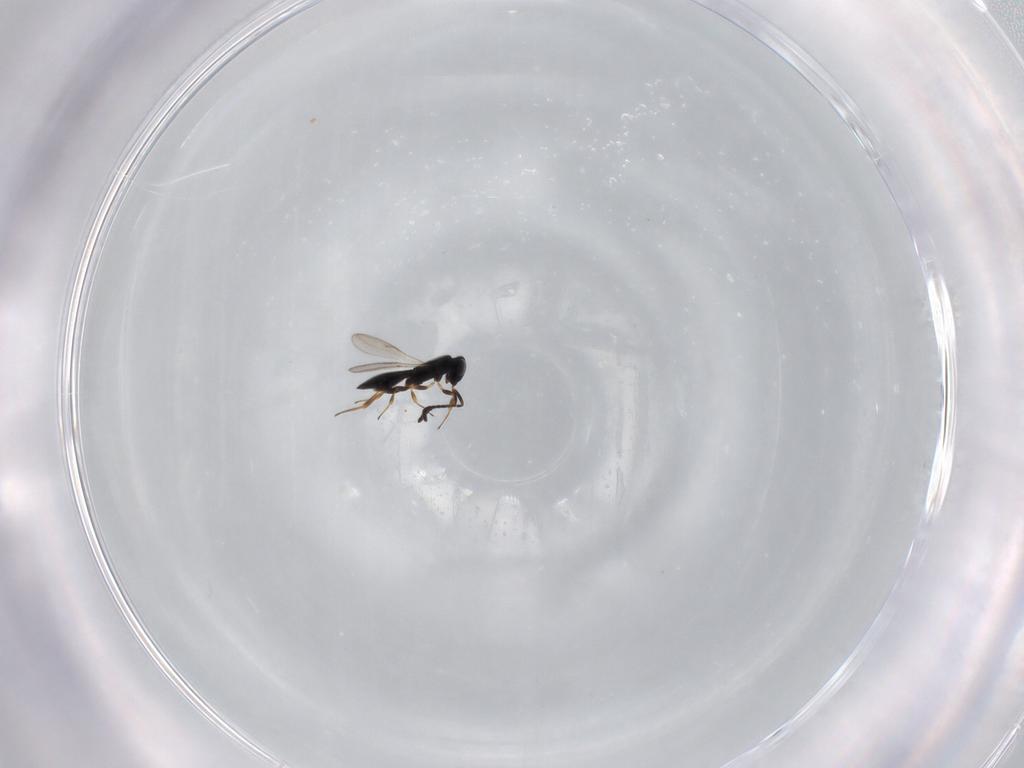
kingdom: Animalia
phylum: Arthropoda
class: Insecta
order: Hymenoptera
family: Scelionidae
